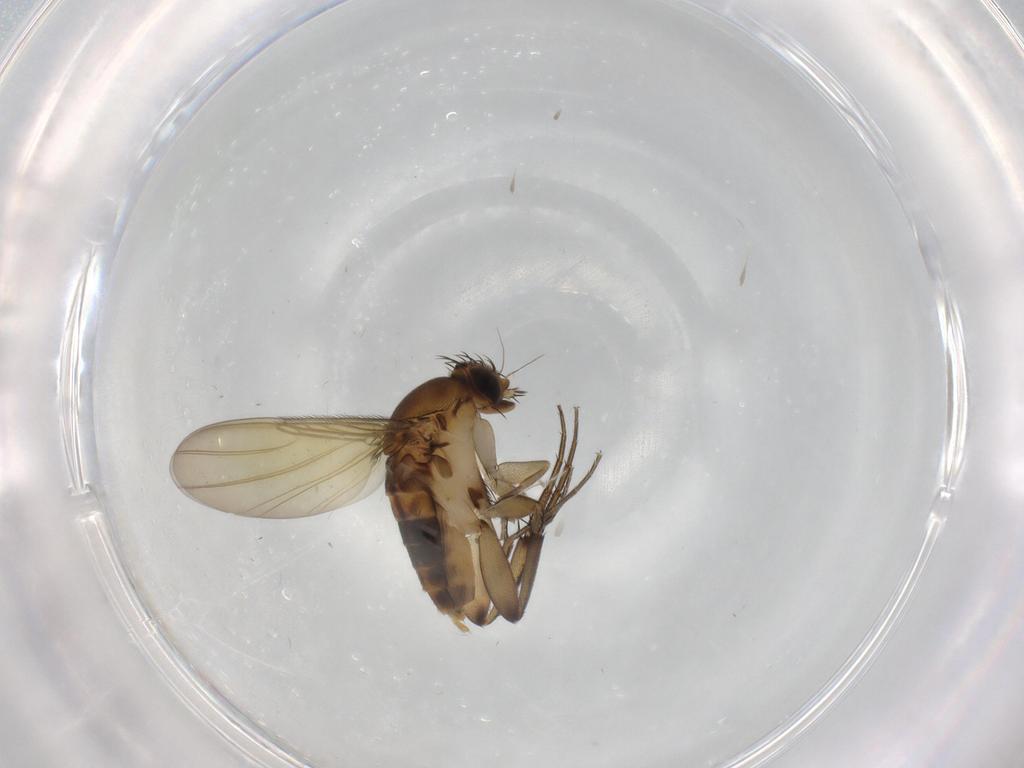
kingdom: Animalia
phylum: Arthropoda
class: Insecta
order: Diptera
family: Phoridae
